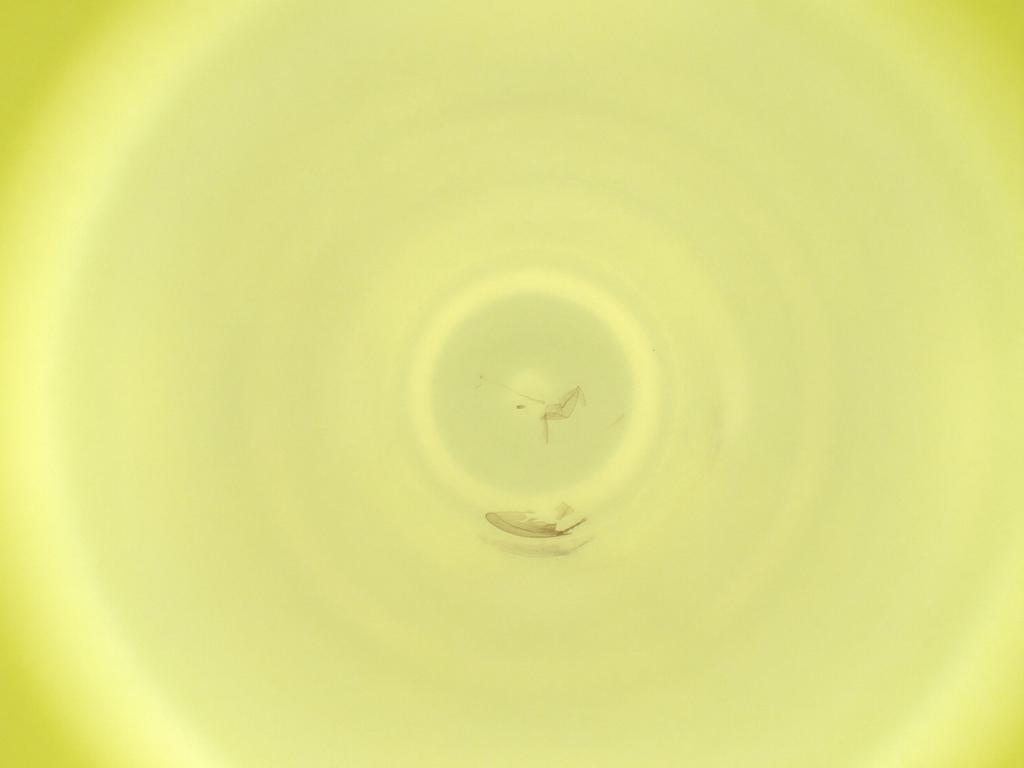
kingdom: Animalia
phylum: Arthropoda
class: Insecta
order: Diptera
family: Cecidomyiidae
